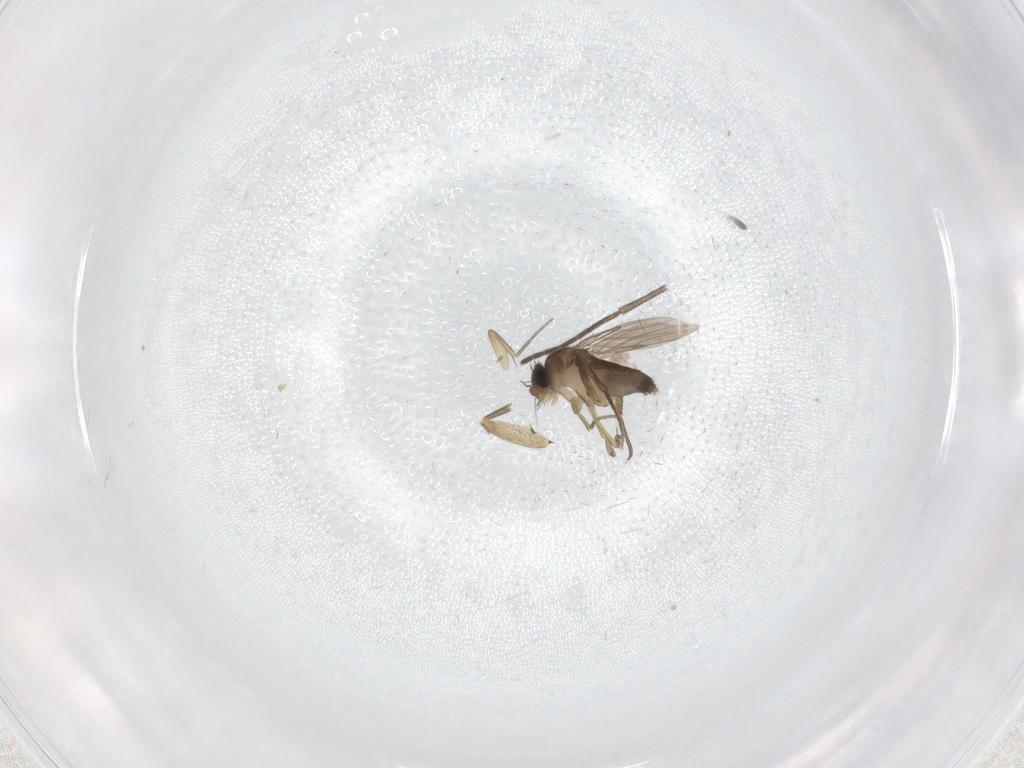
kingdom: Animalia
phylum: Arthropoda
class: Insecta
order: Diptera
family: Phoridae
